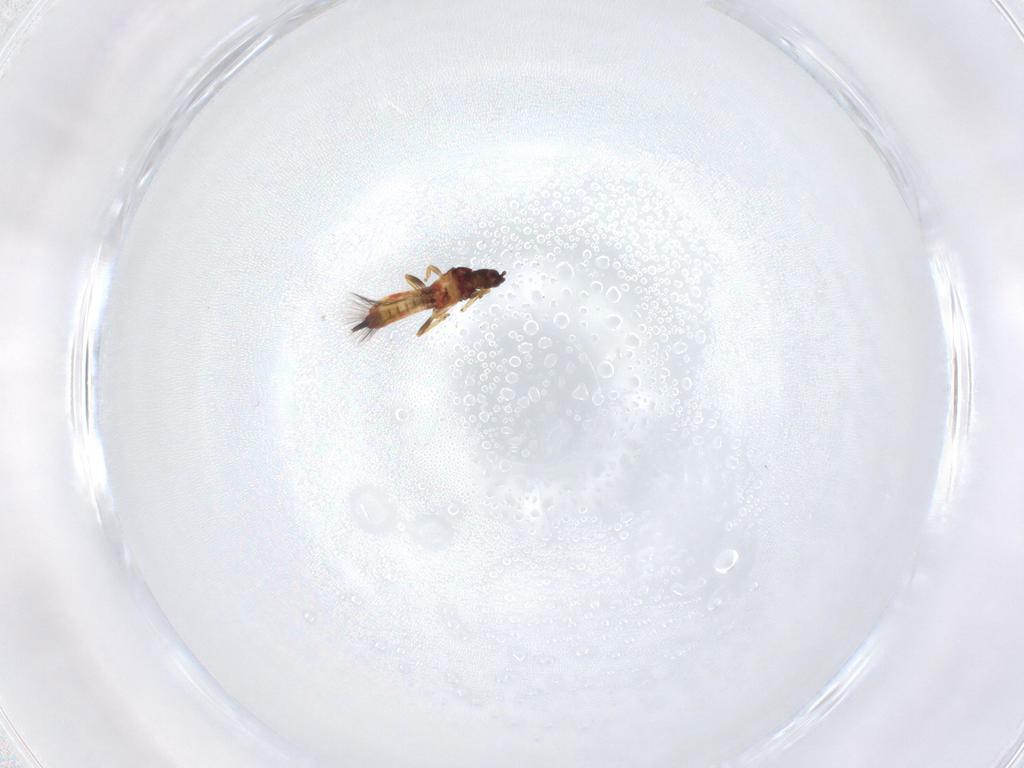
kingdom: Animalia
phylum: Arthropoda
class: Insecta
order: Thysanoptera
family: Phlaeothripidae
